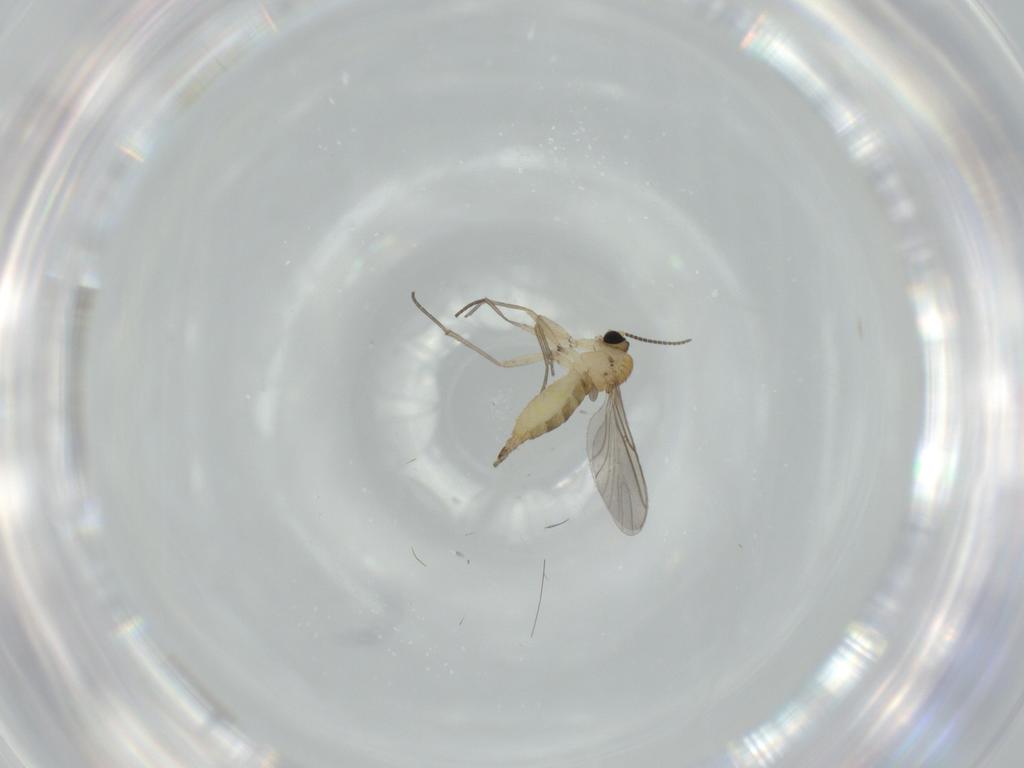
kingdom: Animalia
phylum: Arthropoda
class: Insecta
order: Diptera
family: Sciaridae
